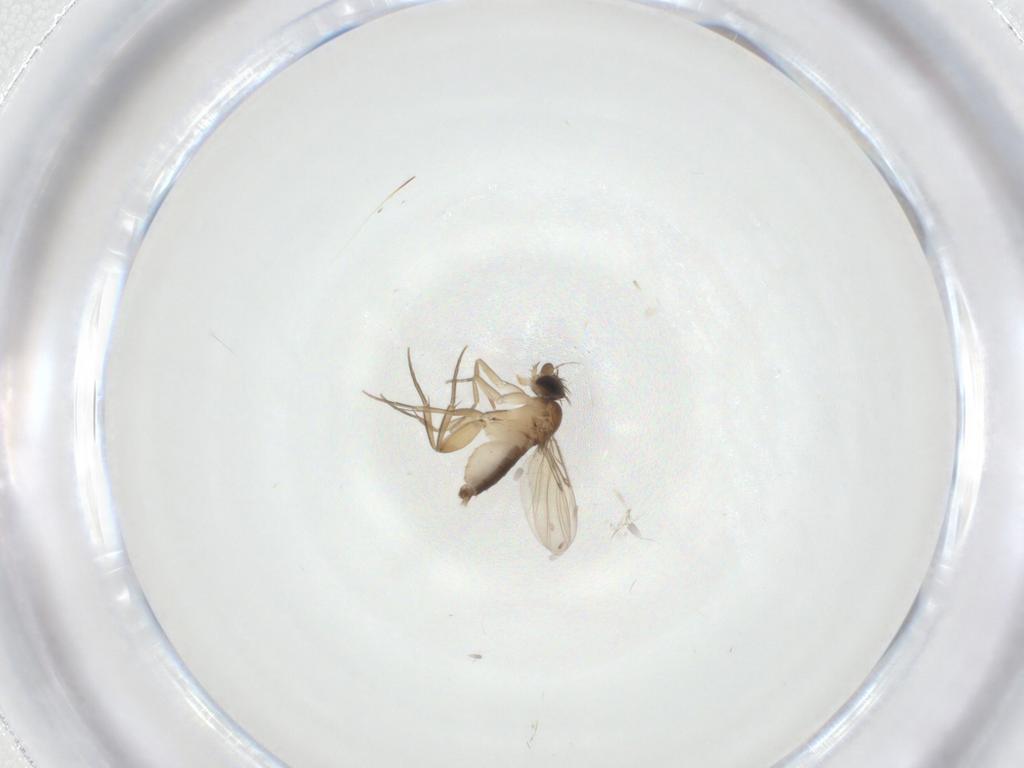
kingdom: Animalia
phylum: Arthropoda
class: Insecta
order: Diptera
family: Phoridae
